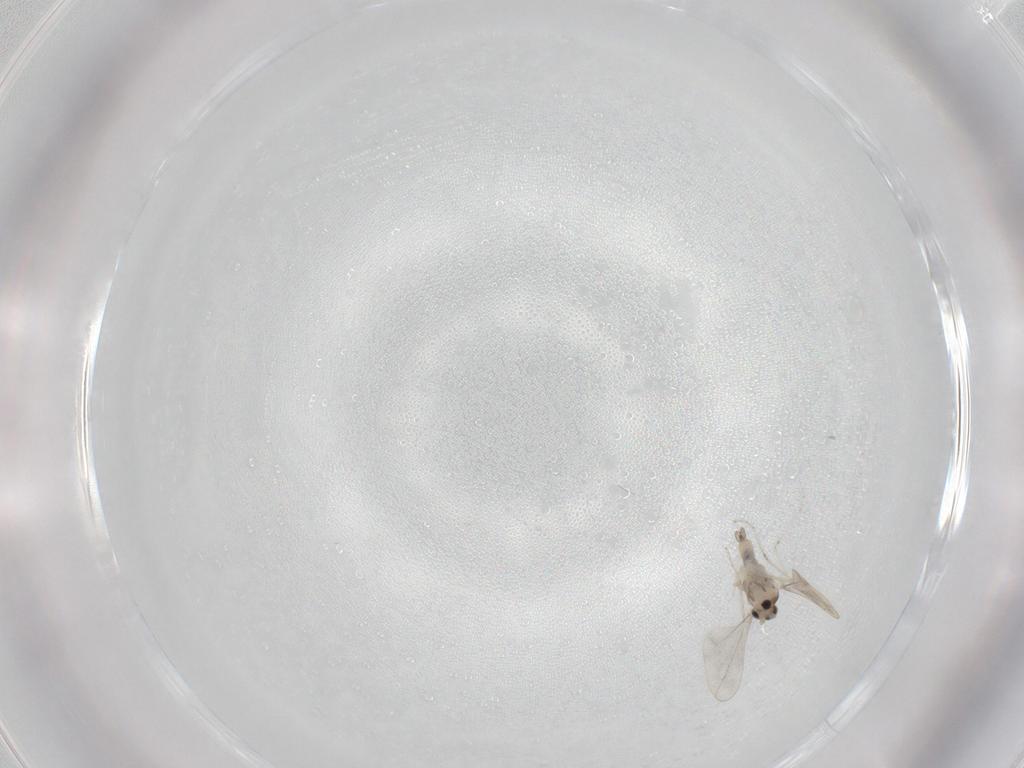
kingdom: Animalia
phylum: Arthropoda
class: Insecta
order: Diptera
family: Cecidomyiidae
